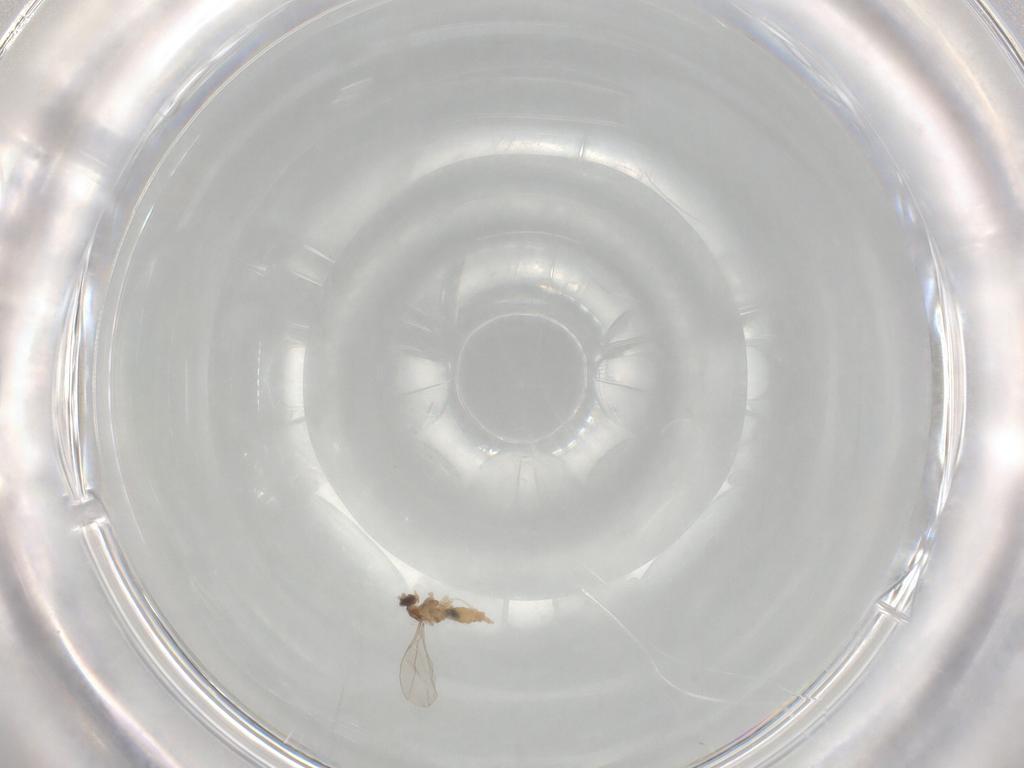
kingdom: Animalia
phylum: Arthropoda
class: Insecta
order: Diptera
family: Cecidomyiidae
